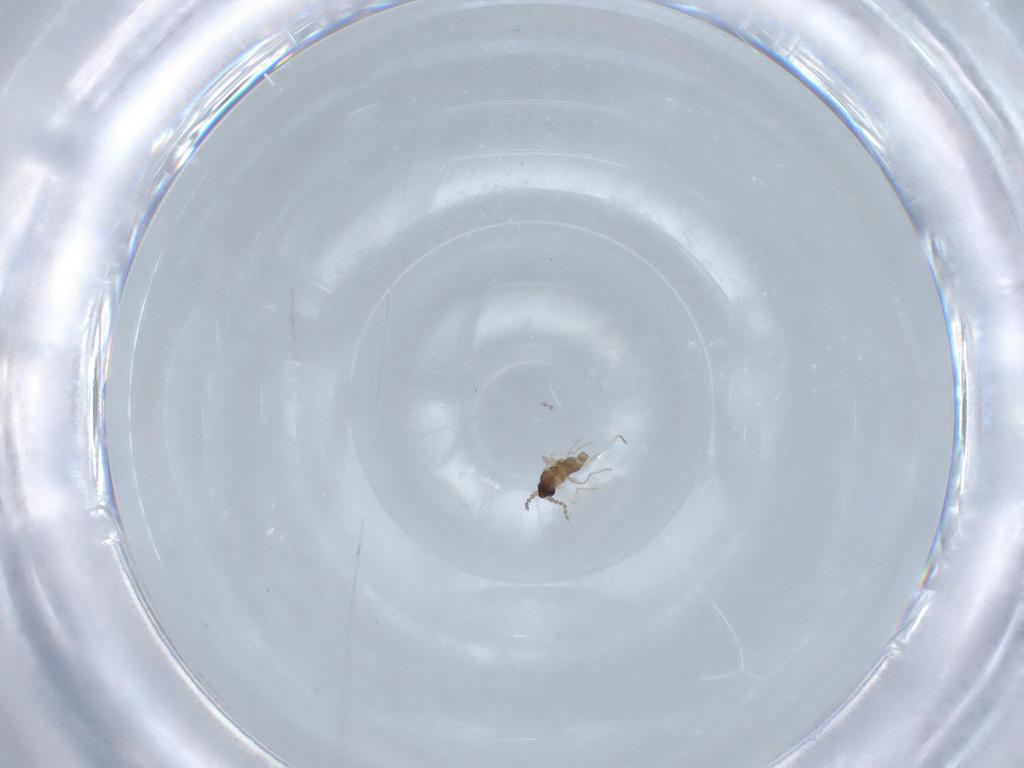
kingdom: Animalia
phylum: Arthropoda
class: Insecta
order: Diptera
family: Cecidomyiidae
